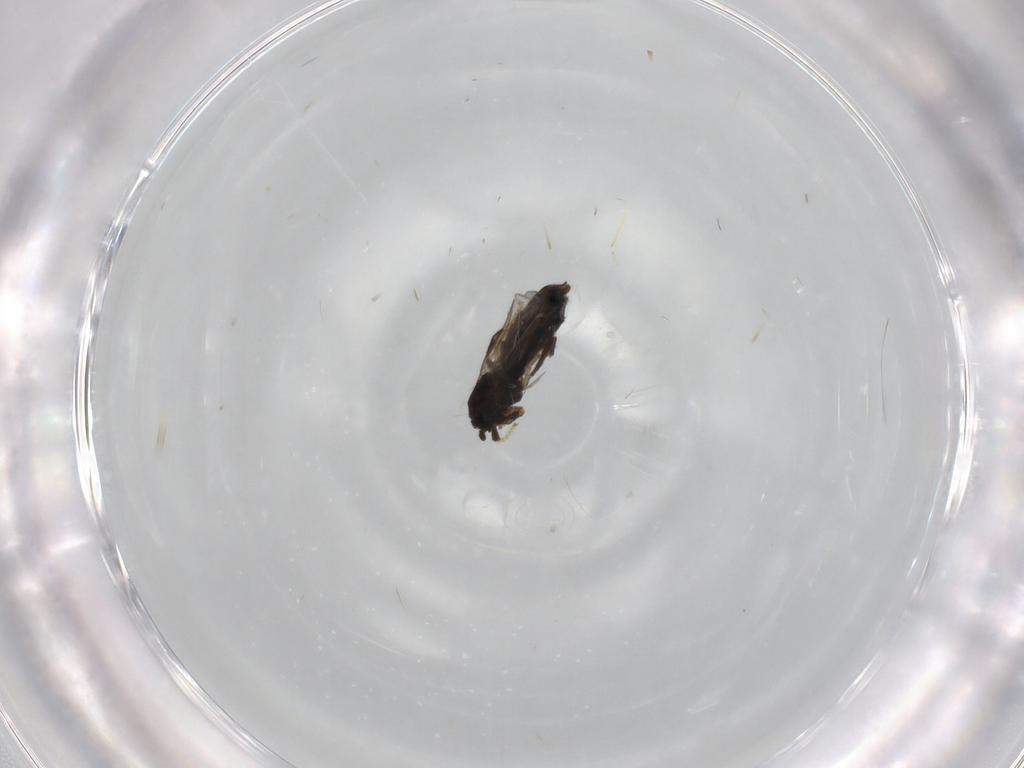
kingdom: Animalia
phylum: Arthropoda
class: Insecta
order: Diptera
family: Scatopsidae
